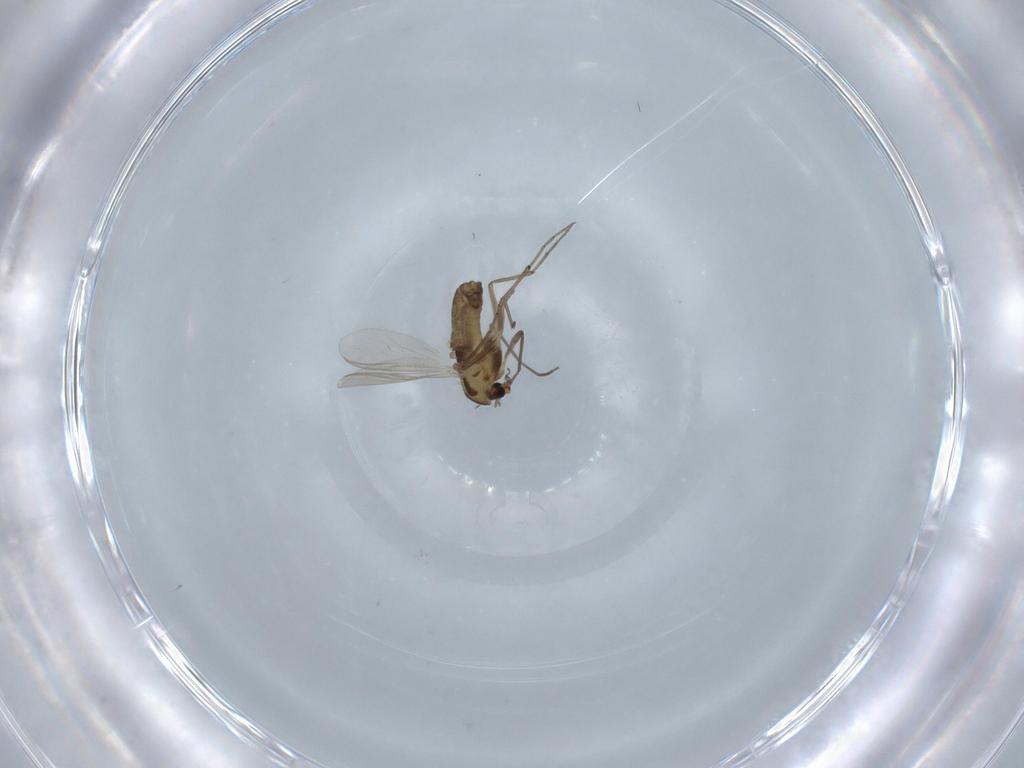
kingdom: Animalia
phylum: Arthropoda
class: Insecta
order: Diptera
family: Chironomidae
